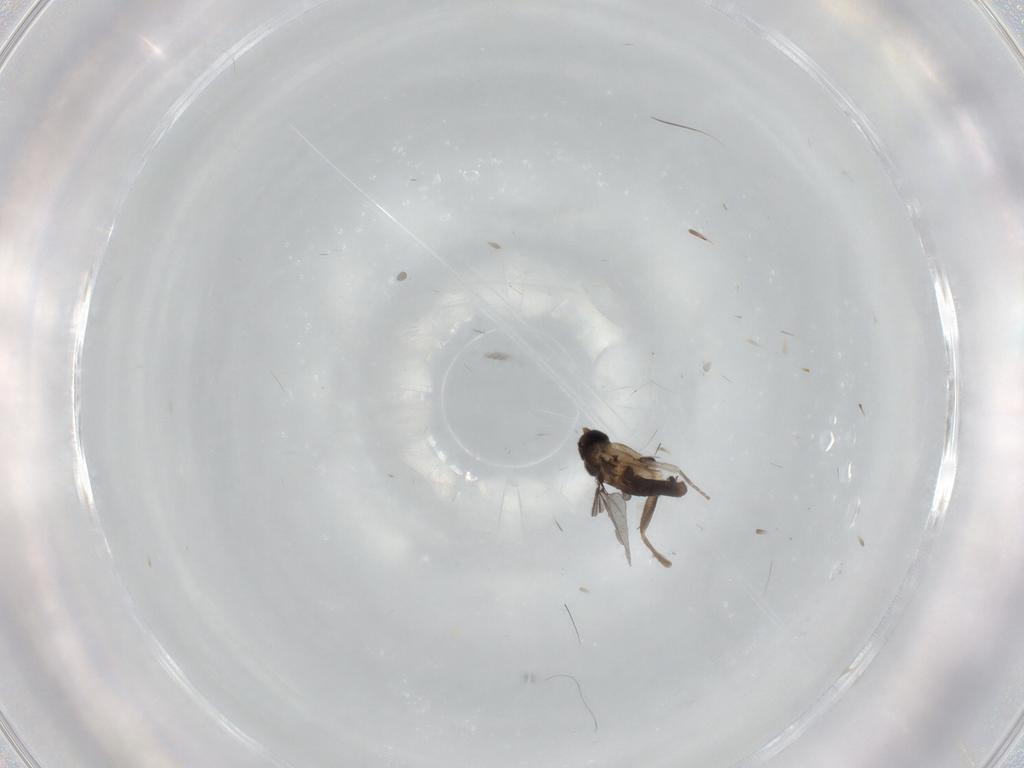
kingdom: Animalia
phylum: Arthropoda
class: Insecta
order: Diptera
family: Phoridae
